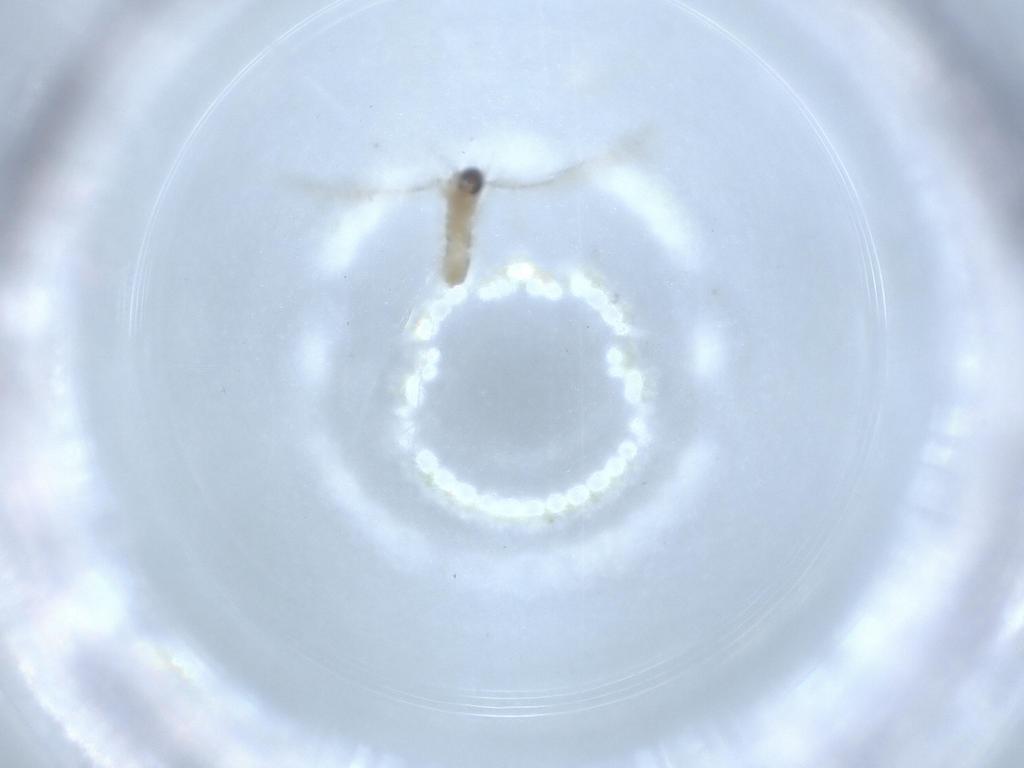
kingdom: Animalia
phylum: Arthropoda
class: Insecta
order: Diptera
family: Cecidomyiidae
